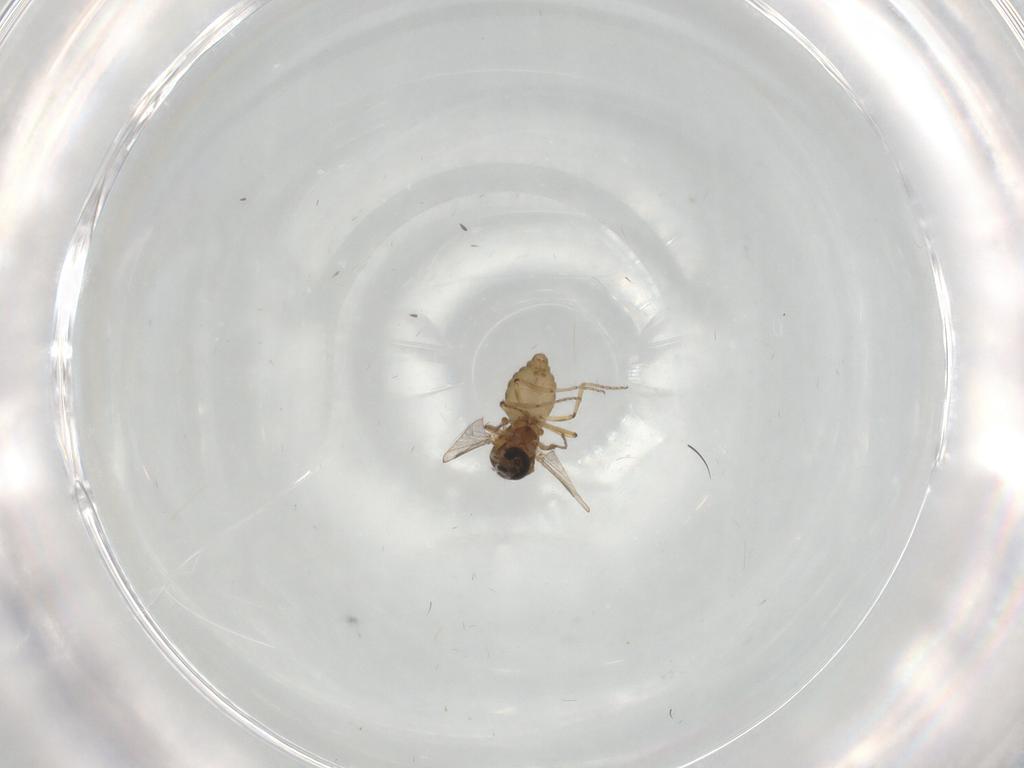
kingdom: Animalia
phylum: Arthropoda
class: Insecta
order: Diptera
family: Ceratopogonidae
